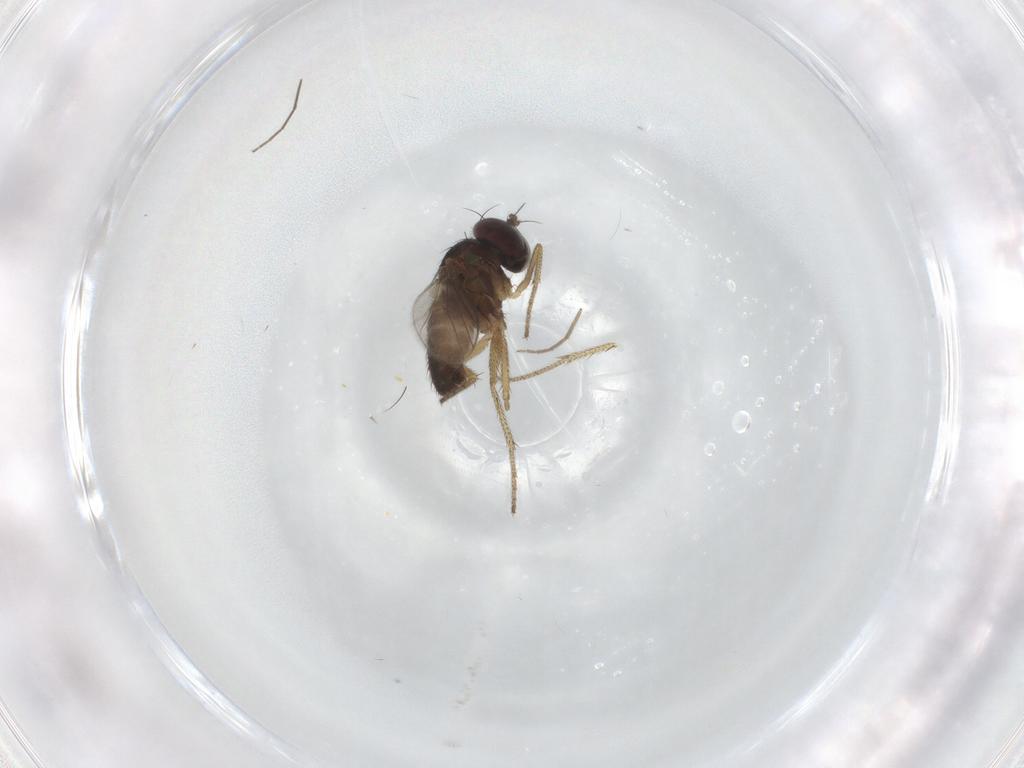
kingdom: Animalia
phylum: Arthropoda
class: Insecta
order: Diptera
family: Chironomidae
